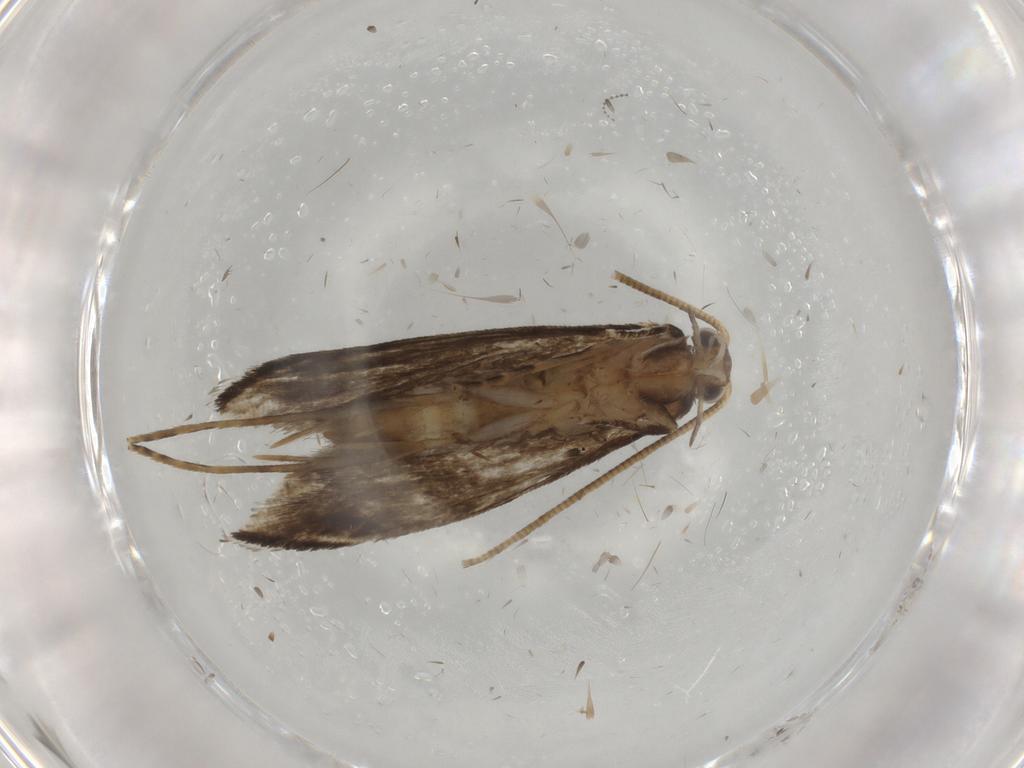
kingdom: Animalia
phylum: Arthropoda
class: Insecta
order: Lepidoptera
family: Tineidae
